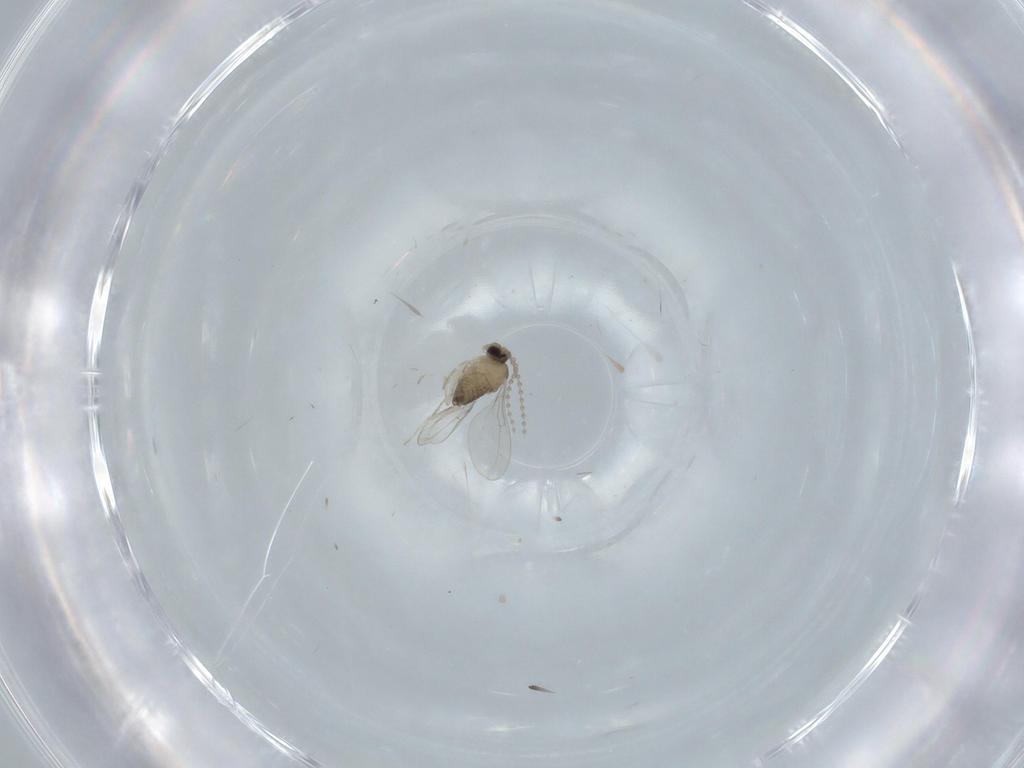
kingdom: Animalia
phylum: Arthropoda
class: Insecta
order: Diptera
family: Cecidomyiidae
